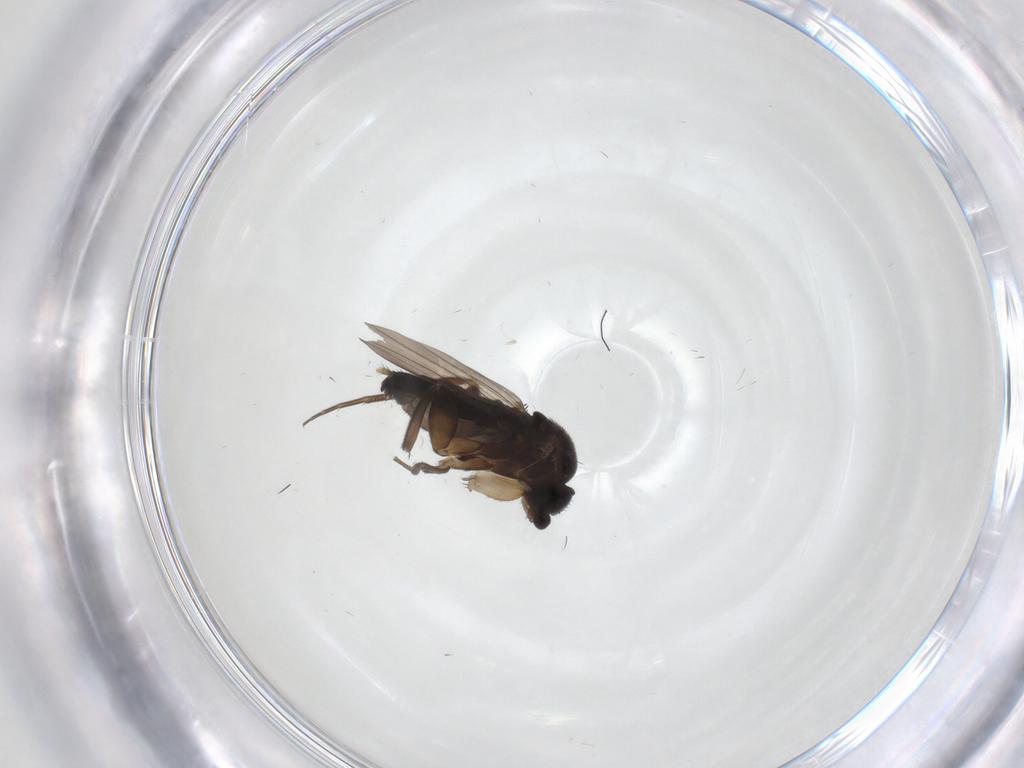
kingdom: Animalia
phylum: Arthropoda
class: Insecta
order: Diptera
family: Phoridae
